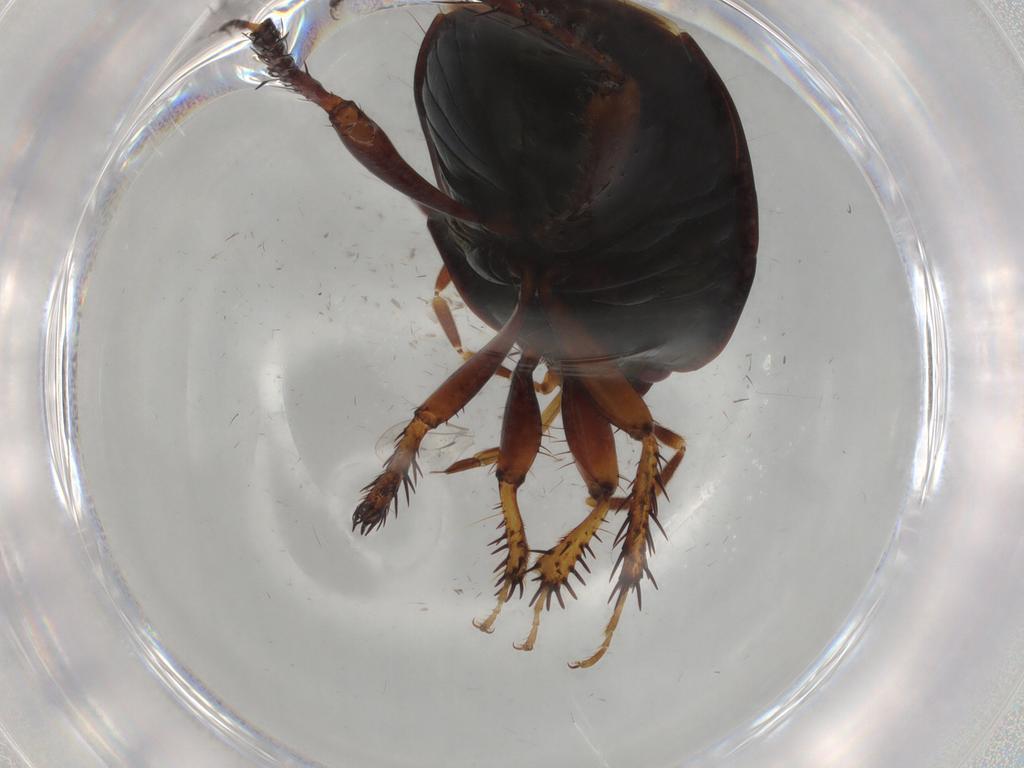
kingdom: Animalia
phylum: Arthropoda
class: Insecta
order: Hemiptera
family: Cydnidae
